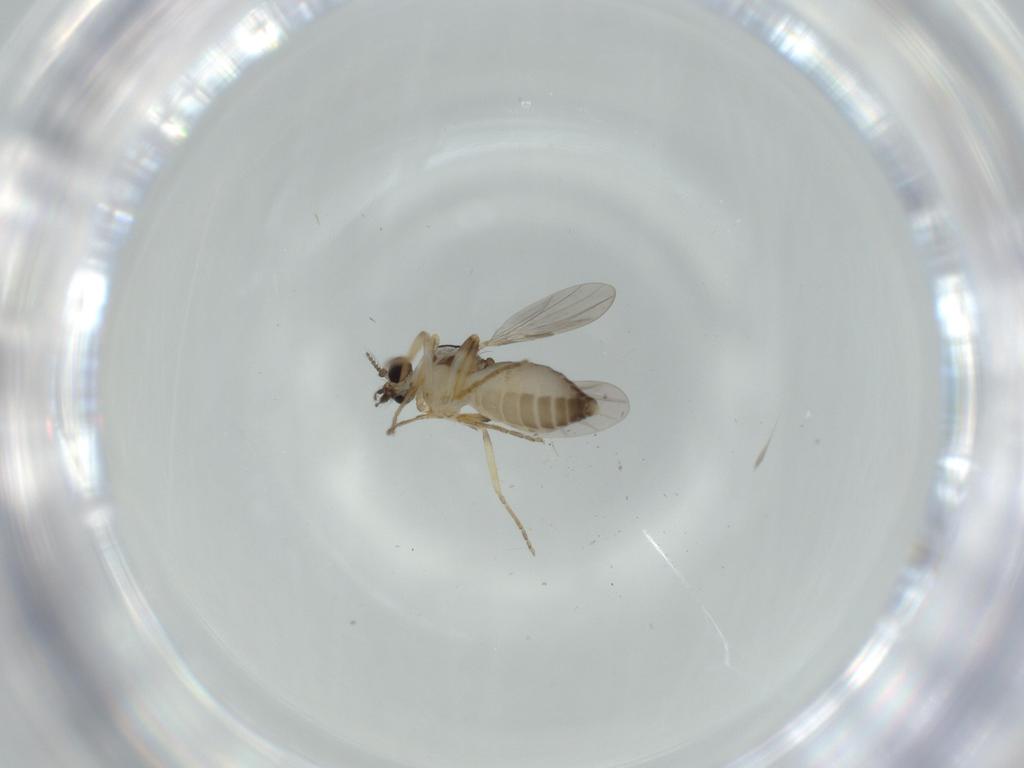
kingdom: Animalia
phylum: Arthropoda
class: Insecta
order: Diptera
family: Ceratopogonidae
